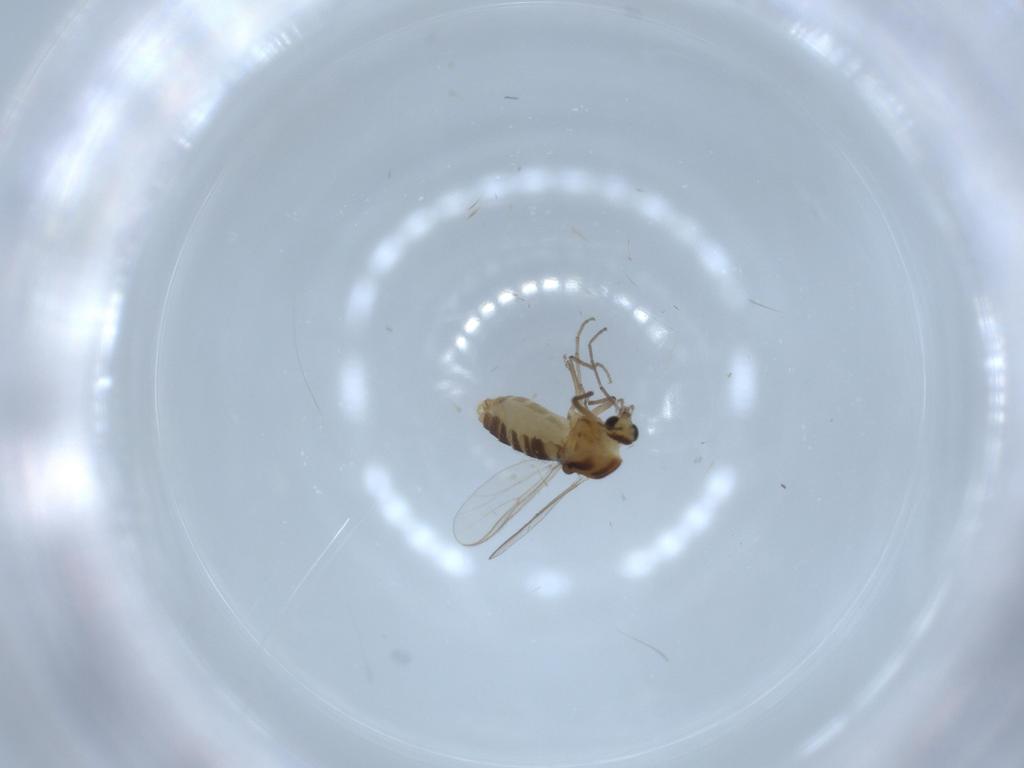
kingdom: Animalia
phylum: Arthropoda
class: Insecta
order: Diptera
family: Chironomidae
